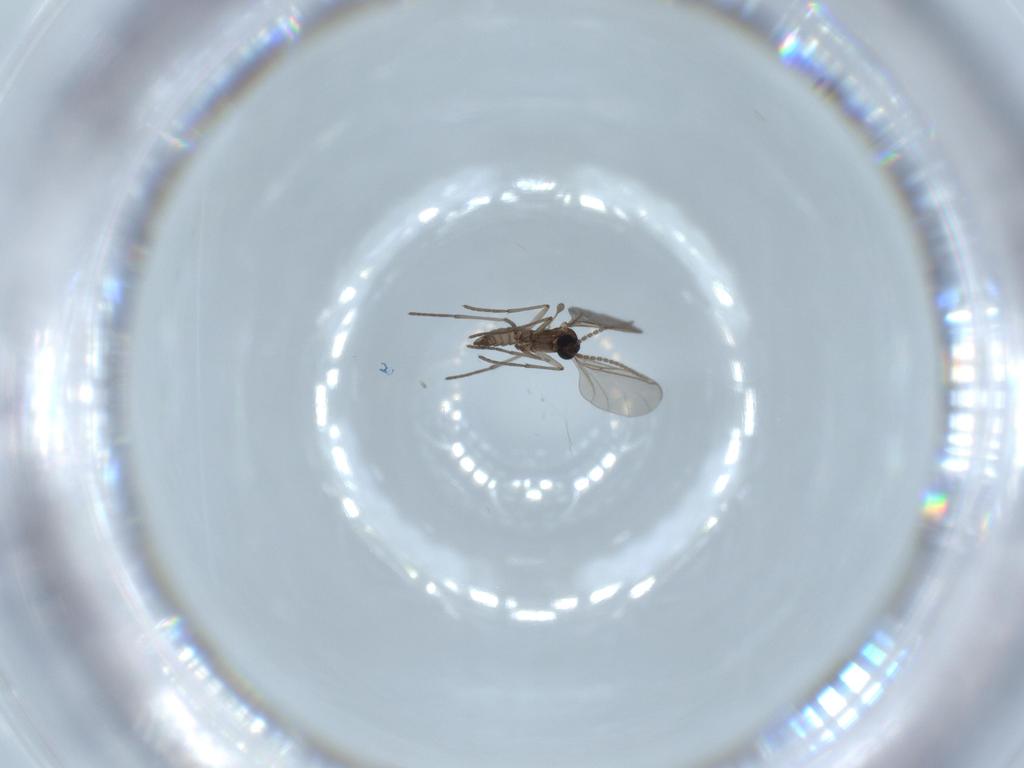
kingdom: Animalia
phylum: Arthropoda
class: Insecta
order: Diptera
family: Sciaridae
